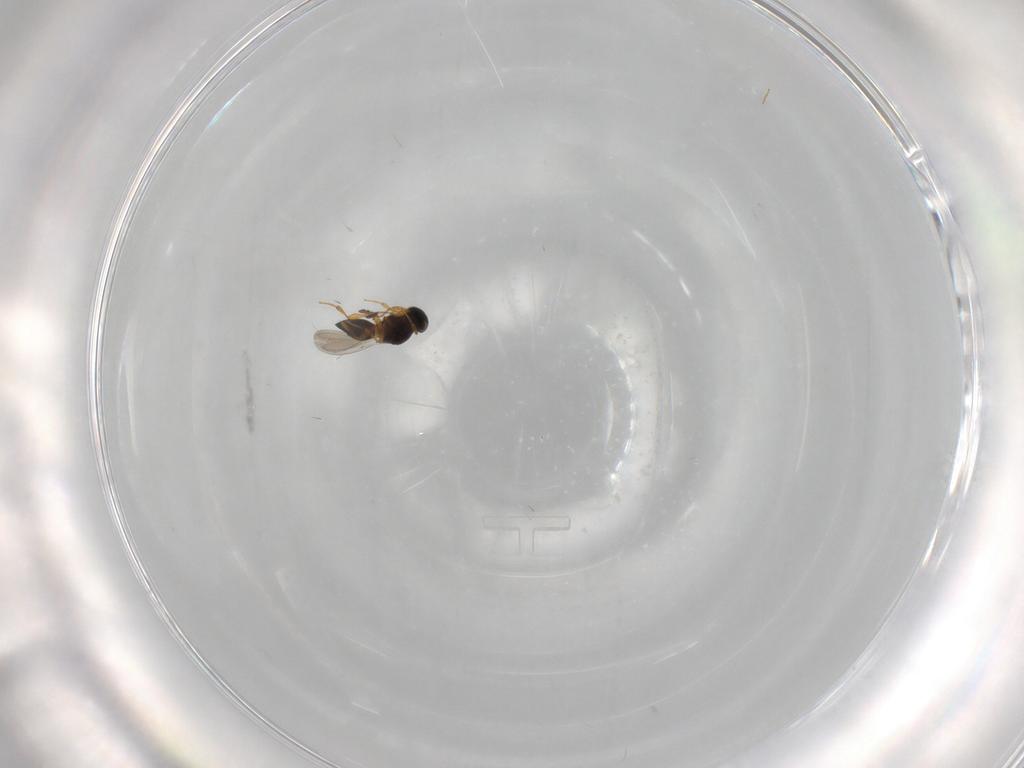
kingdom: Animalia
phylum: Arthropoda
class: Insecta
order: Hymenoptera
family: Platygastridae
